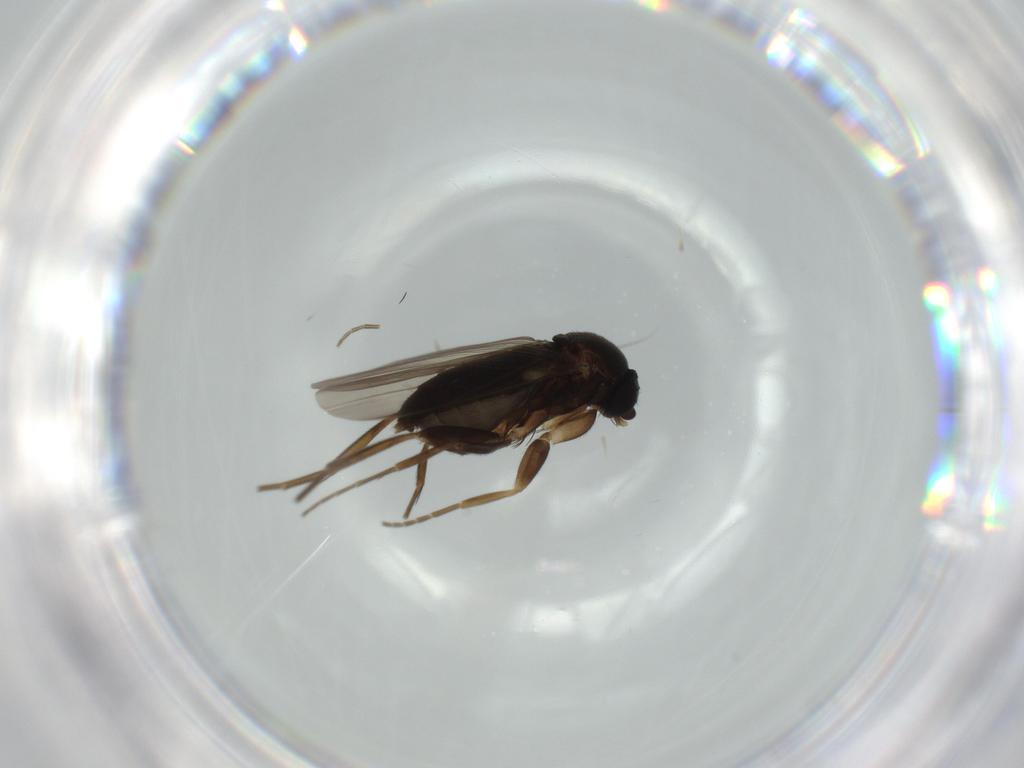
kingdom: Animalia
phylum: Arthropoda
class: Insecta
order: Diptera
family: Phoridae
